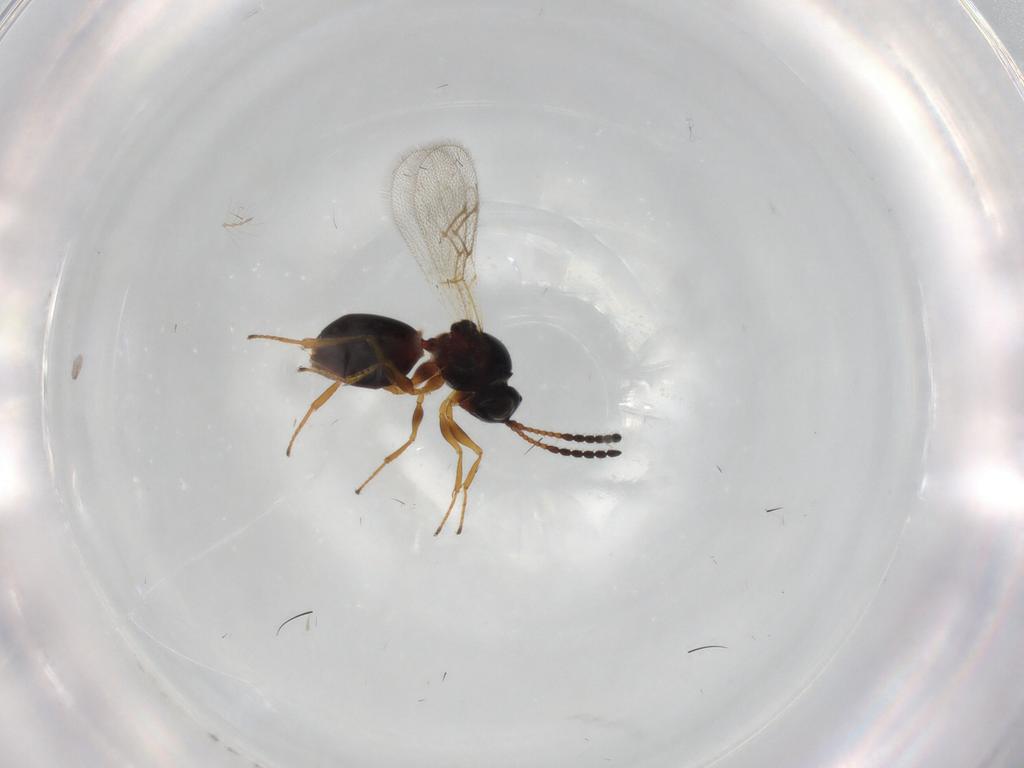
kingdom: Animalia
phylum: Arthropoda
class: Insecta
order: Hymenoptera
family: Figitidae
